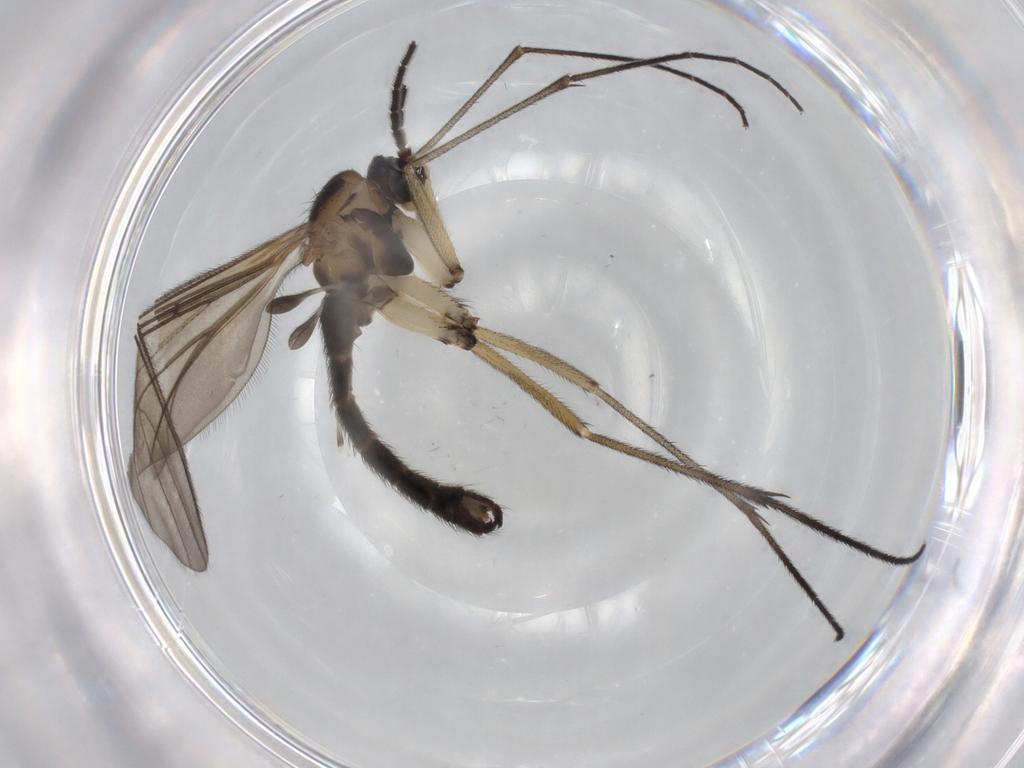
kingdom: Animalia
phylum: Arthropoda
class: Insecta
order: Diptera
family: Sciaridae
